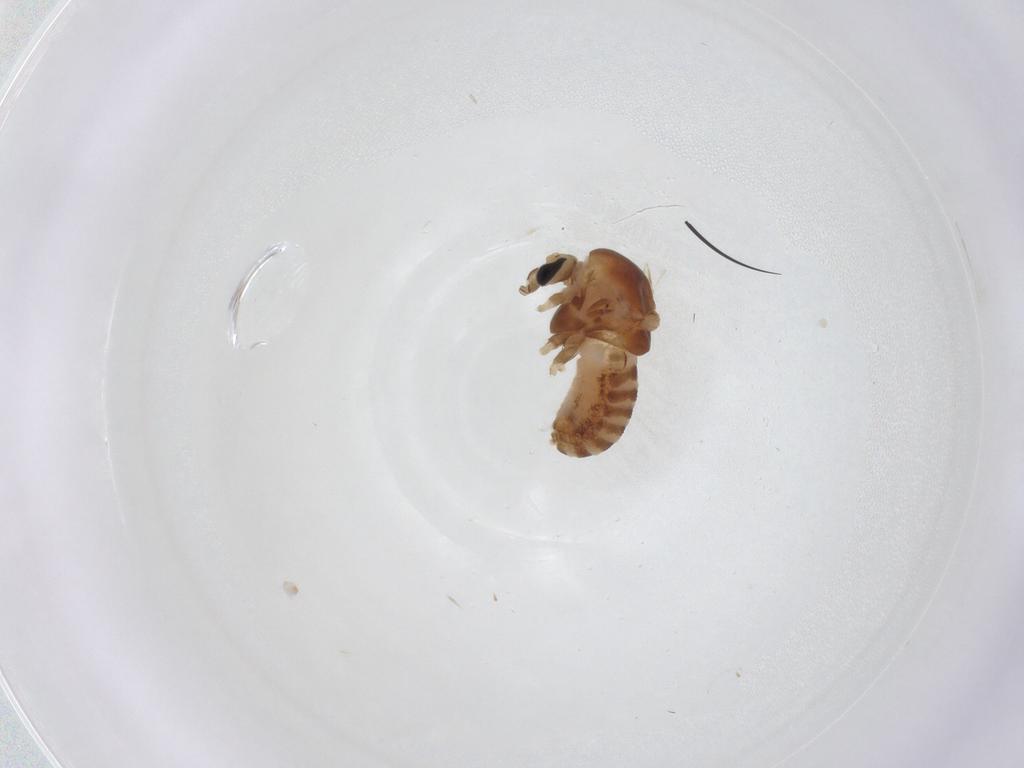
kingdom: Animalia
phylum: Arthropoda
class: Insecta
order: Diptera
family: Chironomidae
